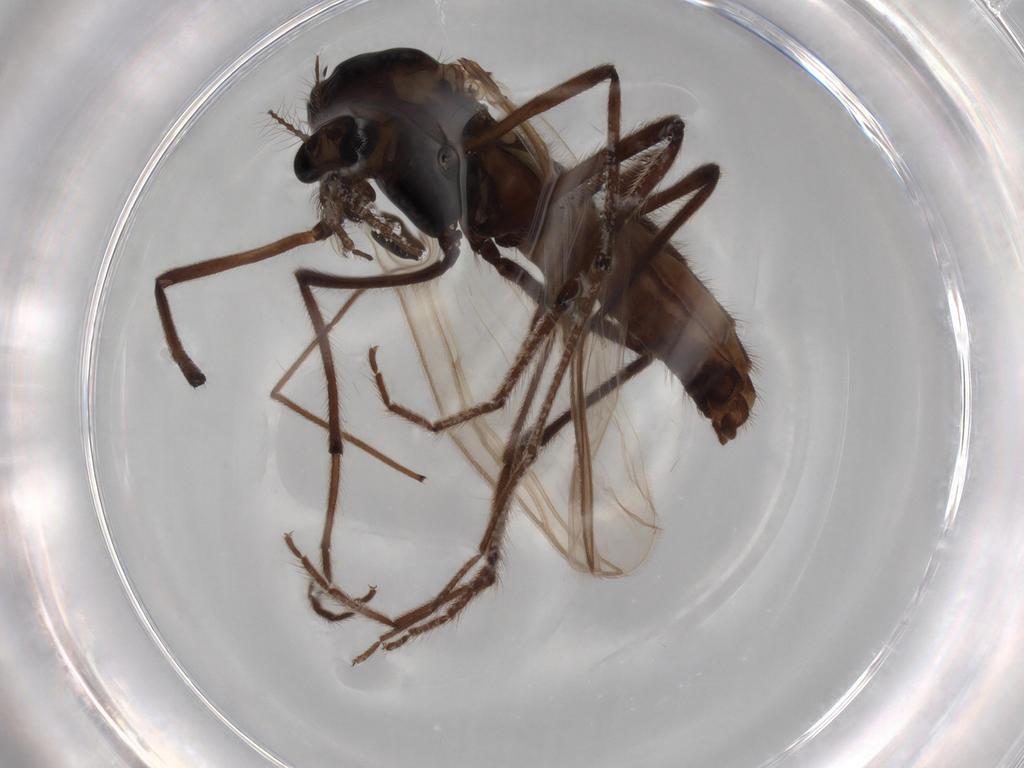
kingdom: Animalia
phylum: Arthropoda
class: Insecta
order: Diptera
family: Chironomidae
